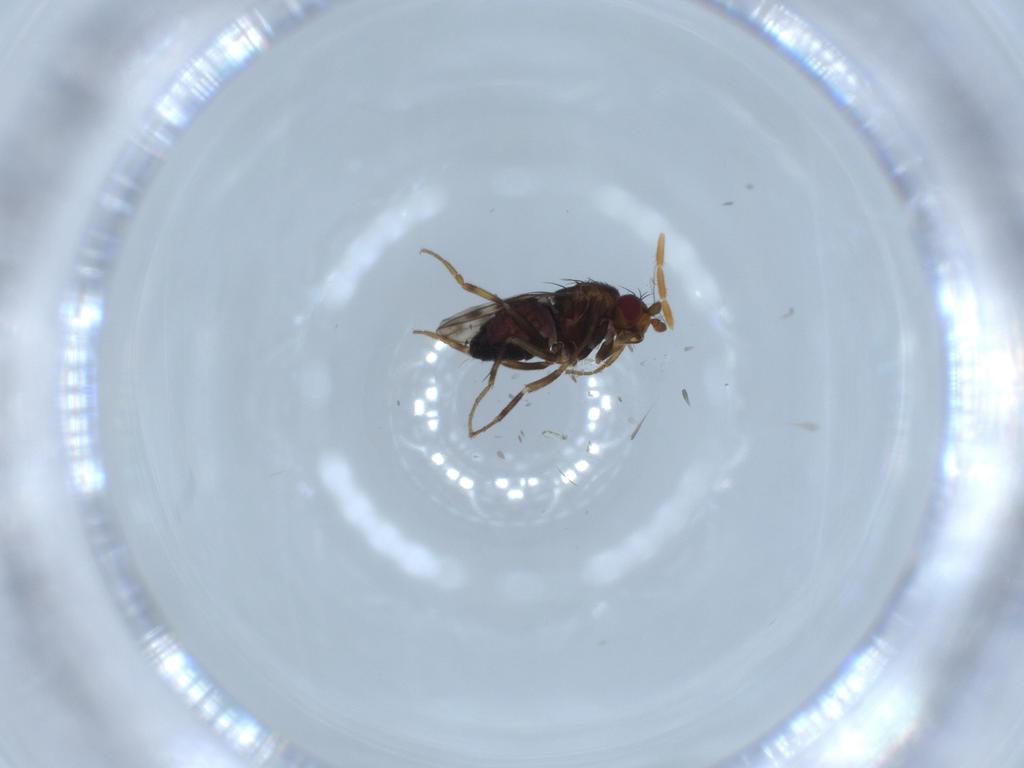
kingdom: Animalia
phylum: Arthropoda
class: Insecta
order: Diptera
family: Sphaeroceridae
